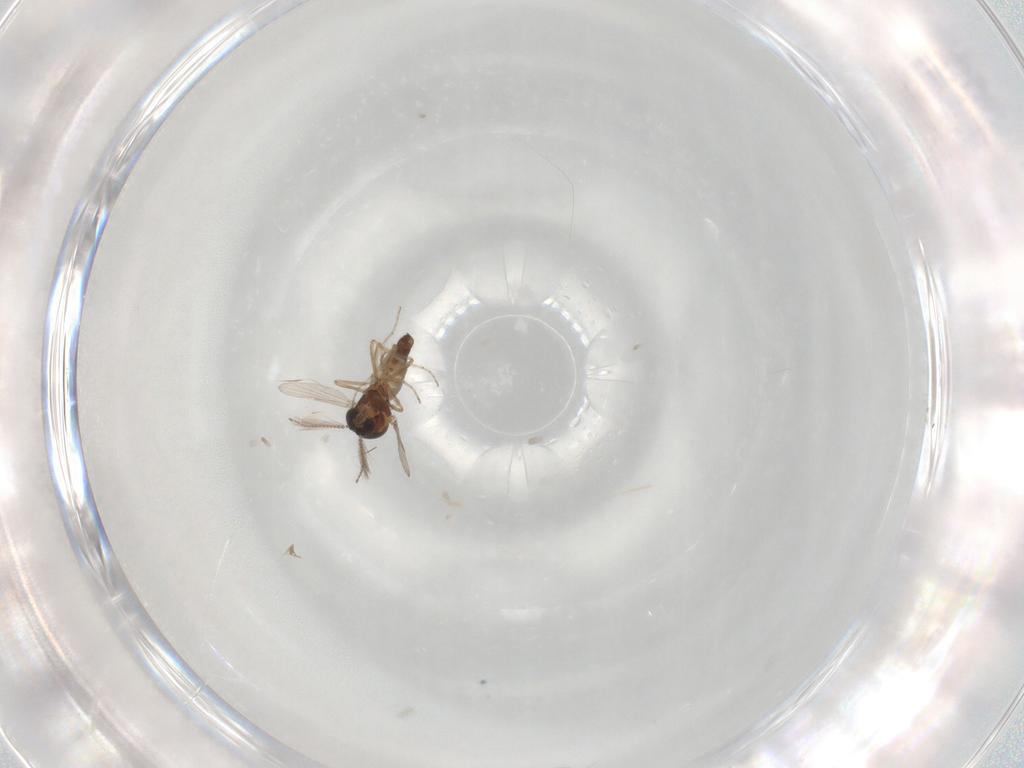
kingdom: Animalia
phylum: Arthropoda
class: Insecta
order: Diptera
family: Ceratopogonidae
